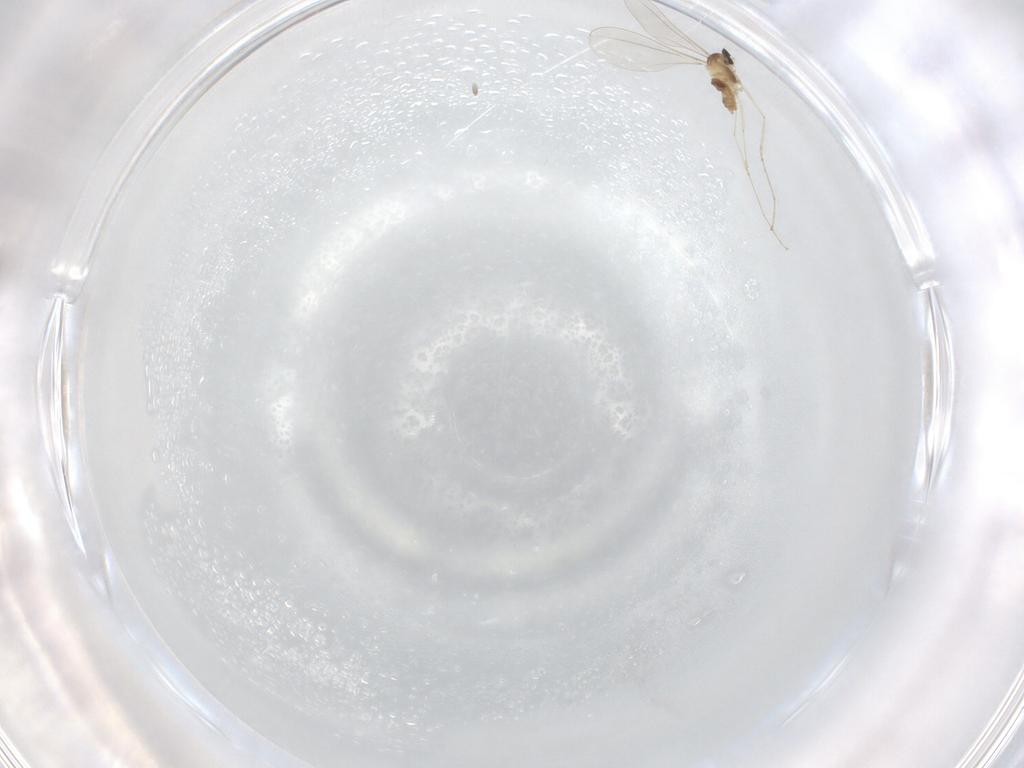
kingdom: Animalia
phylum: Arthropoda
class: Insecta
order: Diptera
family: Cecidomyiidae
